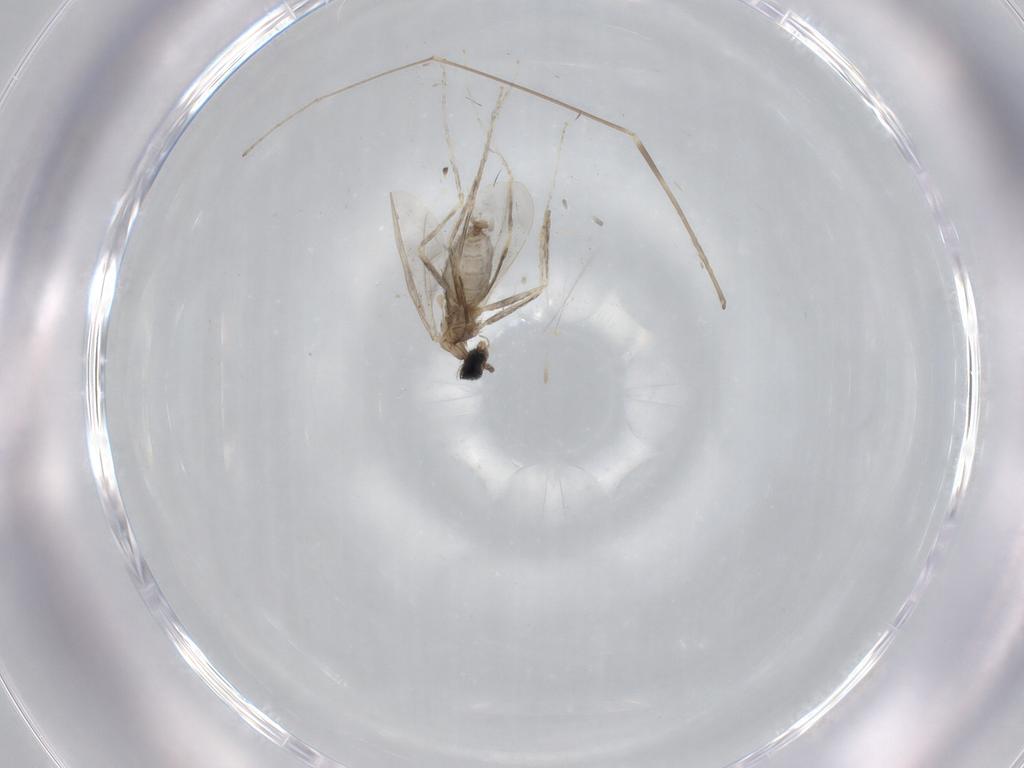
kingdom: Animalia
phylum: Arthropoda
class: Insecta
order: Diptera
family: Cecidomyiidae
